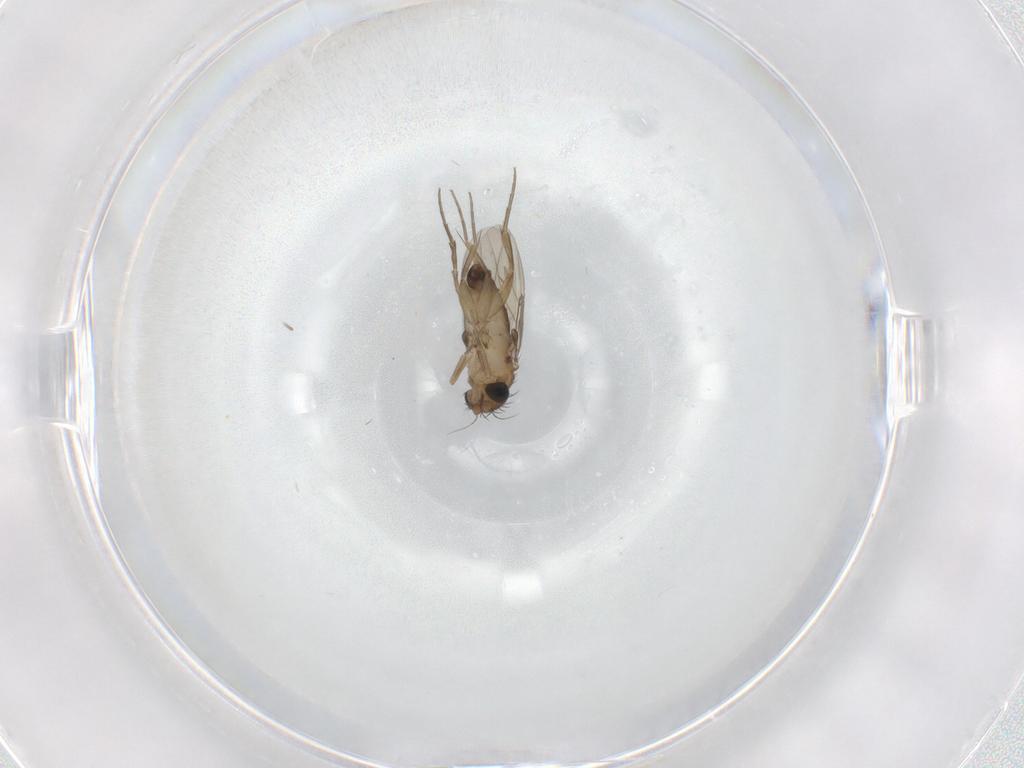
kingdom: Animalia
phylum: Arthropoda
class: Insecta
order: Diptera
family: Phoridae
